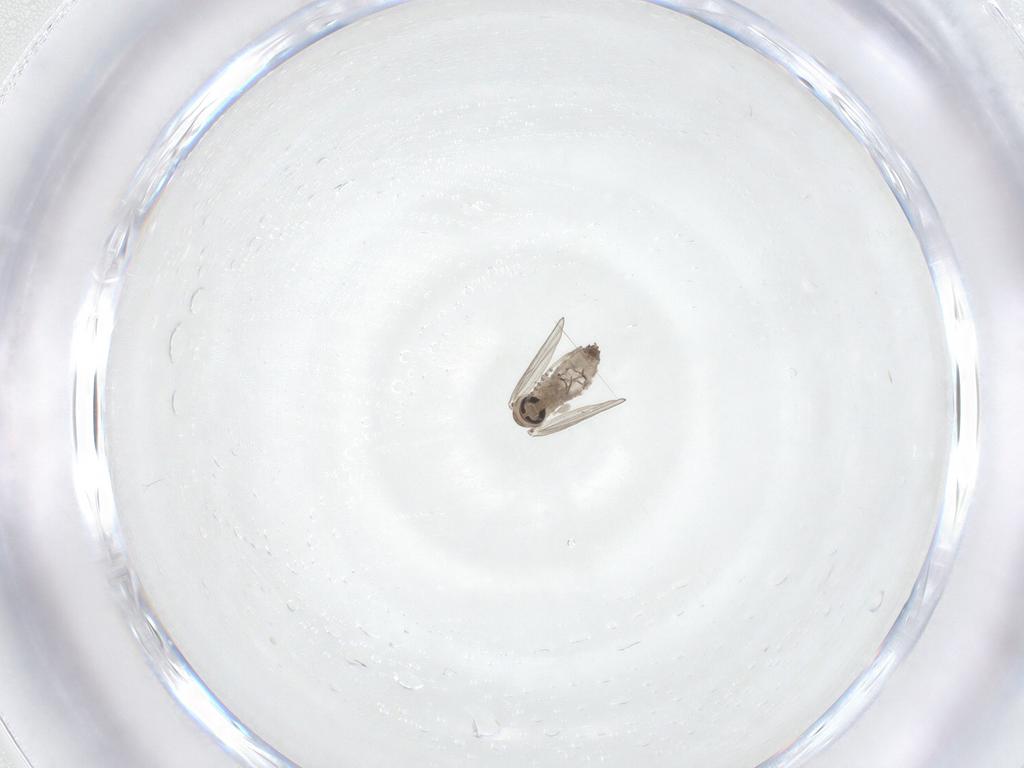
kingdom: Animalia
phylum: Arthropoda
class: Insecta
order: Diptera
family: Psychodidae
